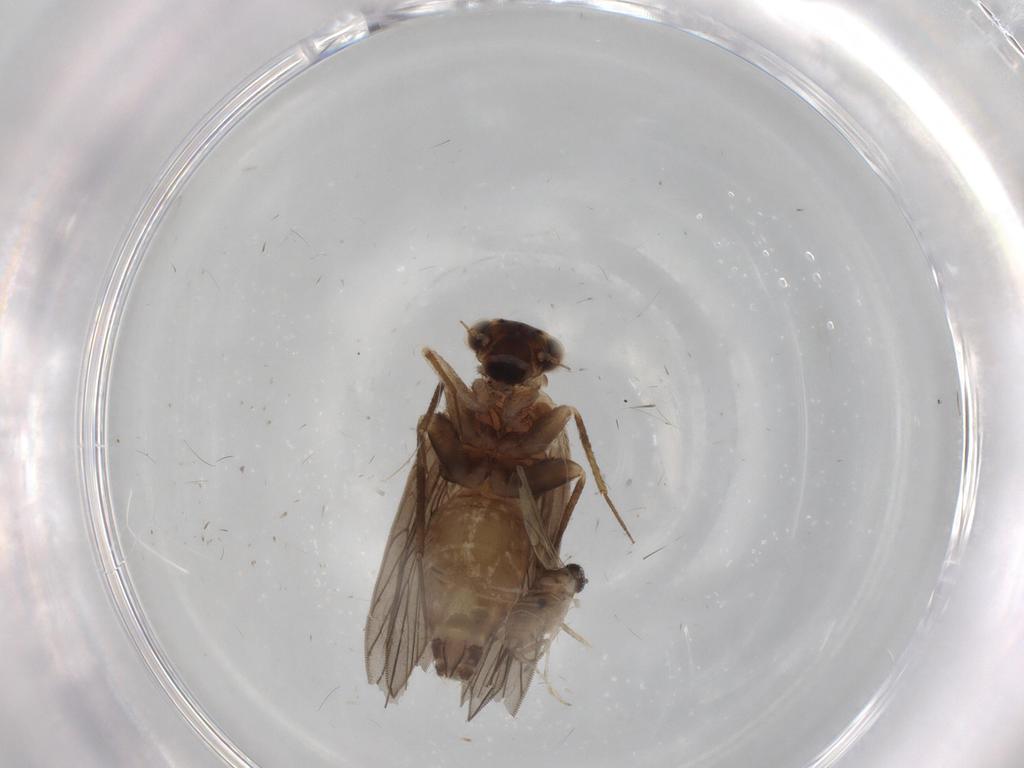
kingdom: Animalia
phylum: Arthropoda
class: Insecta
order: Psocodea
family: Lepidopsocidae
